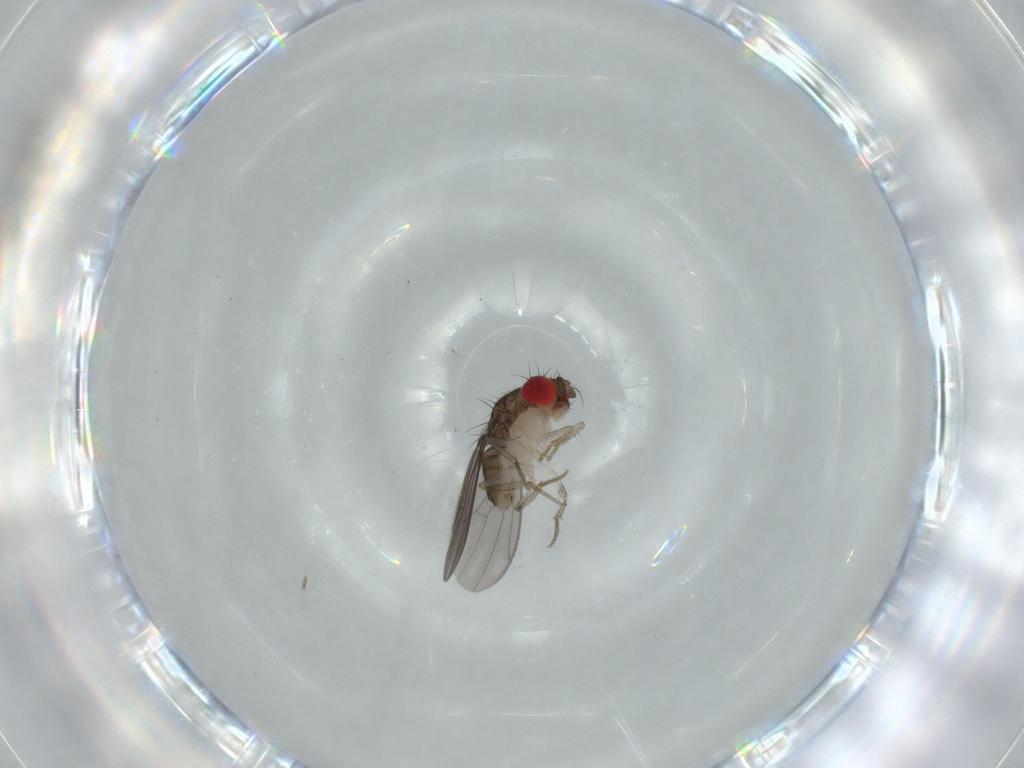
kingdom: Animalia
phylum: Arthropoda
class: Insecta
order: Diptera
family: Drosophilidae
